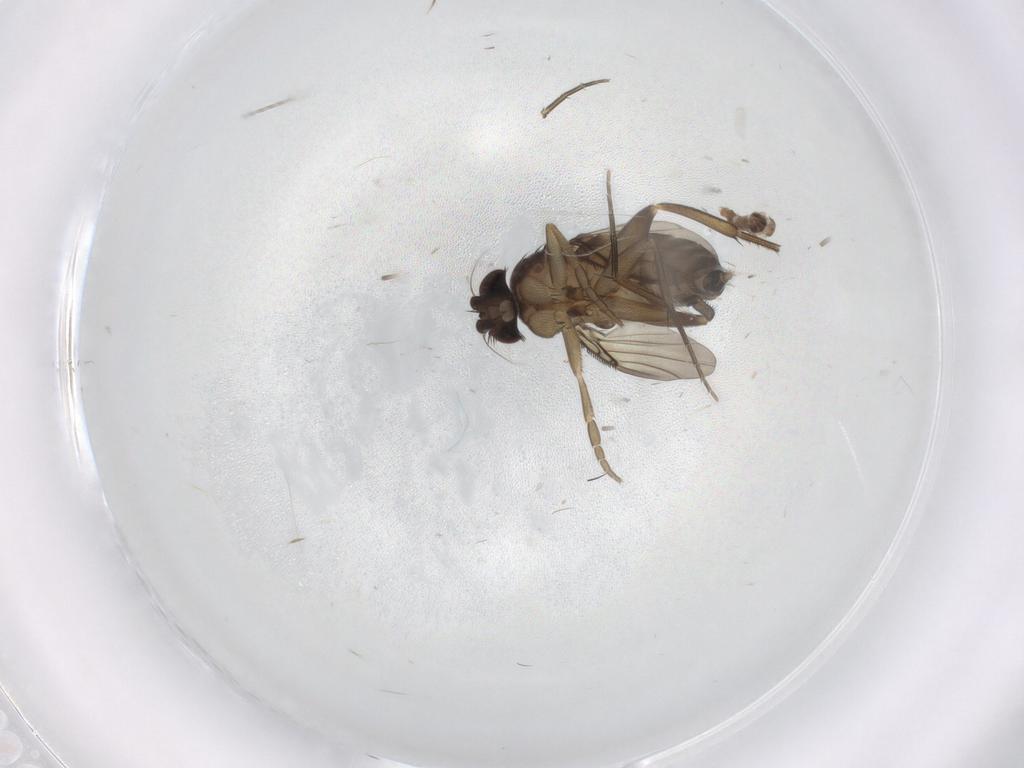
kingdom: Animalia
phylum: Arthropoda
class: Insecta
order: Diptera
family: Phoridae
